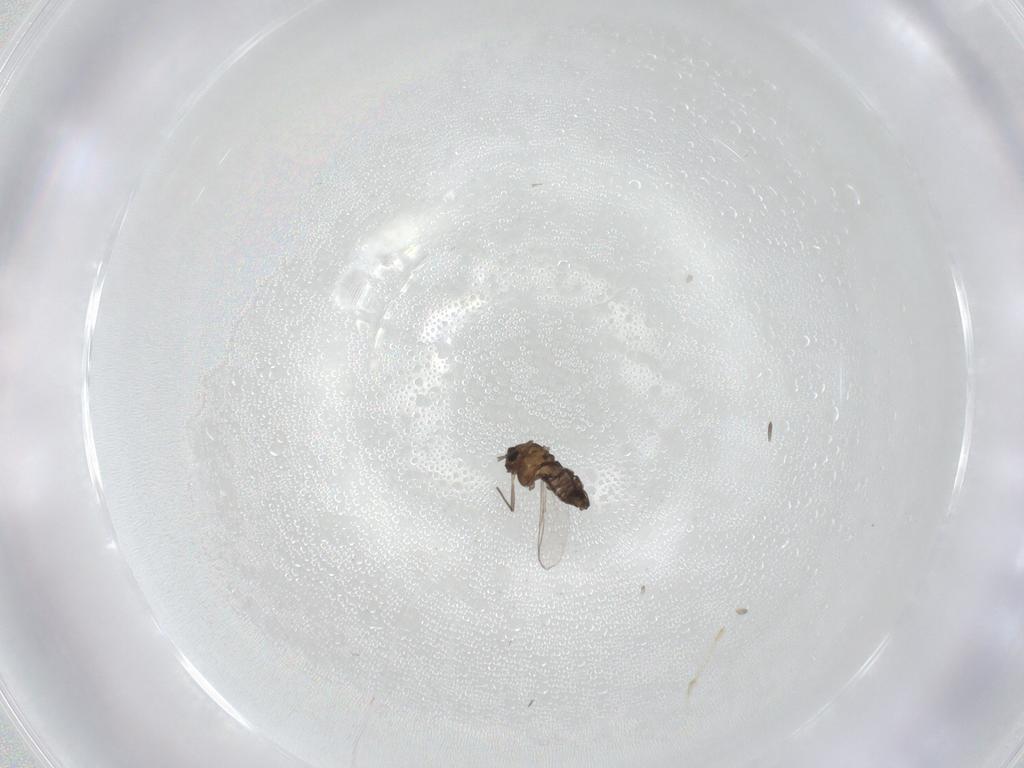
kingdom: Animalia
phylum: Arthropoda
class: Insecta
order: Diptera
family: Chironomidae
